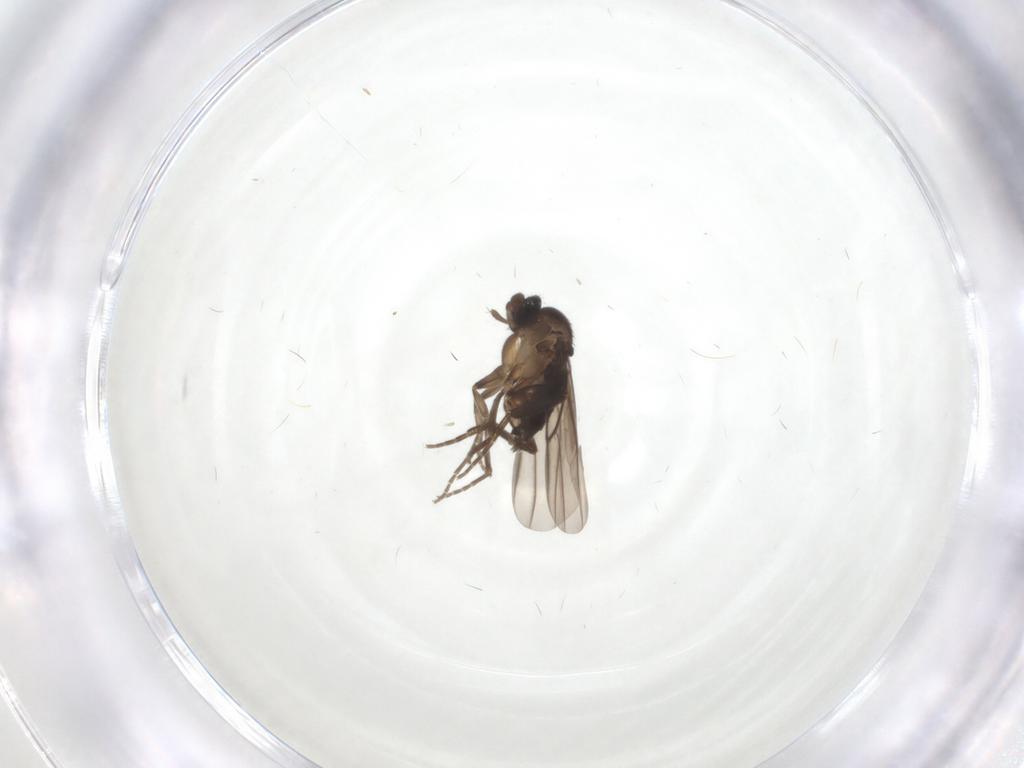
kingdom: Animalia
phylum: Arthropoda
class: Insecta
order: Diptera
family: Phoridae
